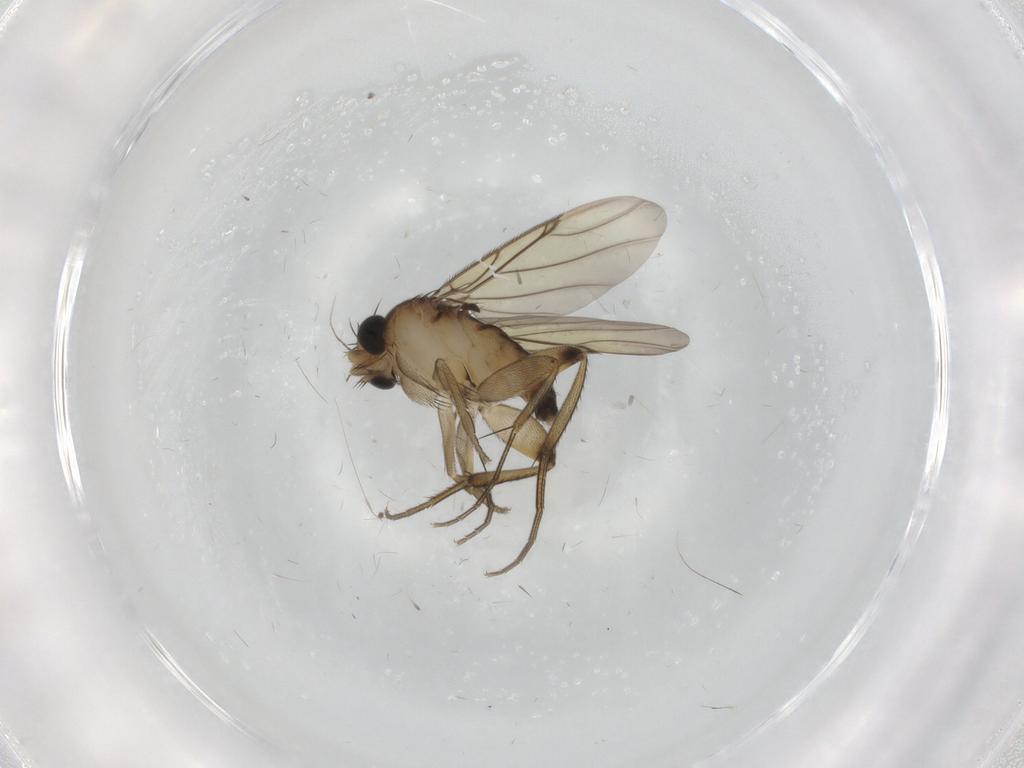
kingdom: Animalia
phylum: Arthropoda
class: Insecta
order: Diptera
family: Phoridae
